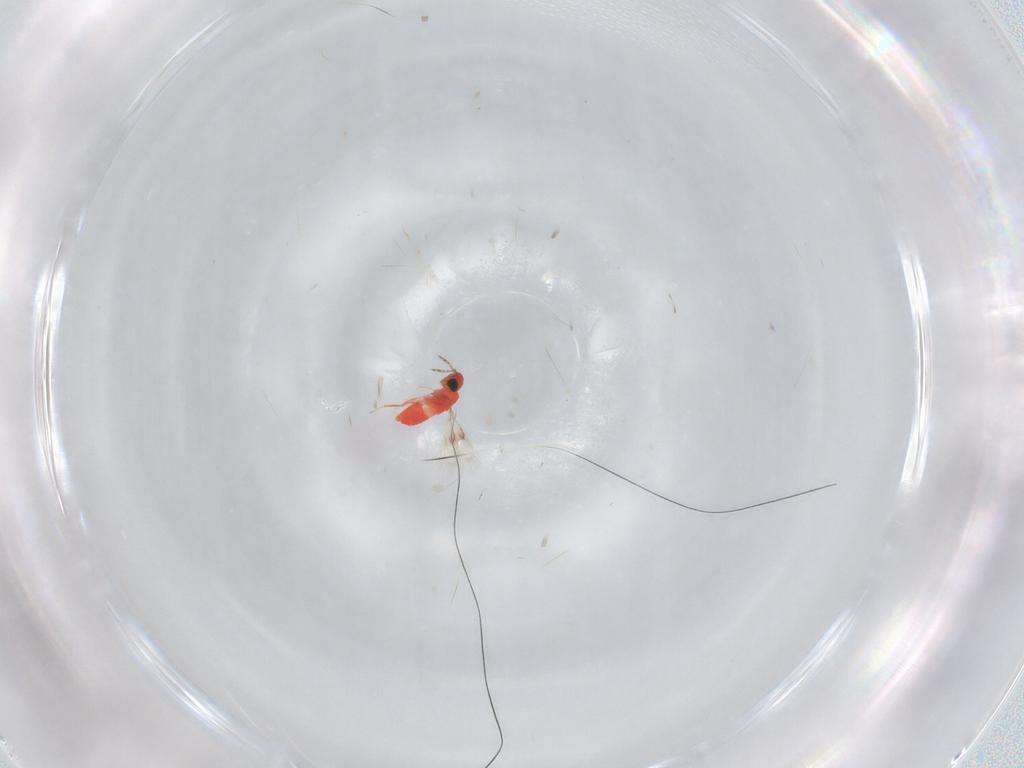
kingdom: Animalia
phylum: Arthropoda
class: Insecta
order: Hymenoptera
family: Trichogrammatidae
